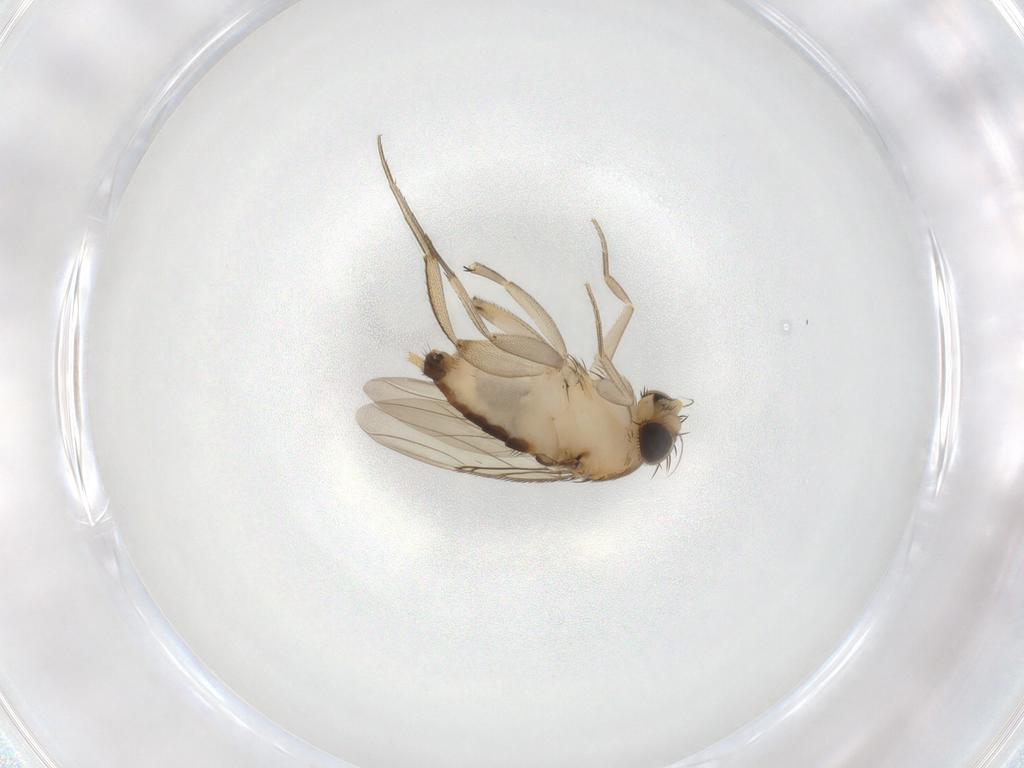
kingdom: Animalia
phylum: Arthropoda
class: Insecta
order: Diptera
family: Phoridae
